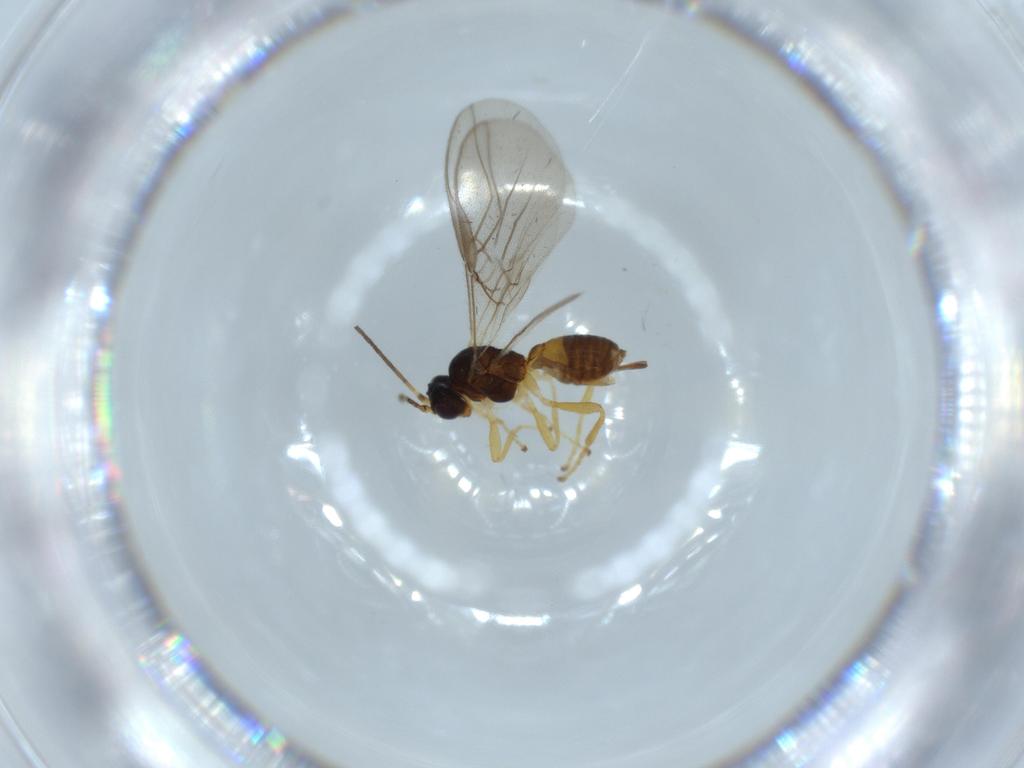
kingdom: Animalia
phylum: Arthropoda
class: Insecta
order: Hymenoptera
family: Braconidae
